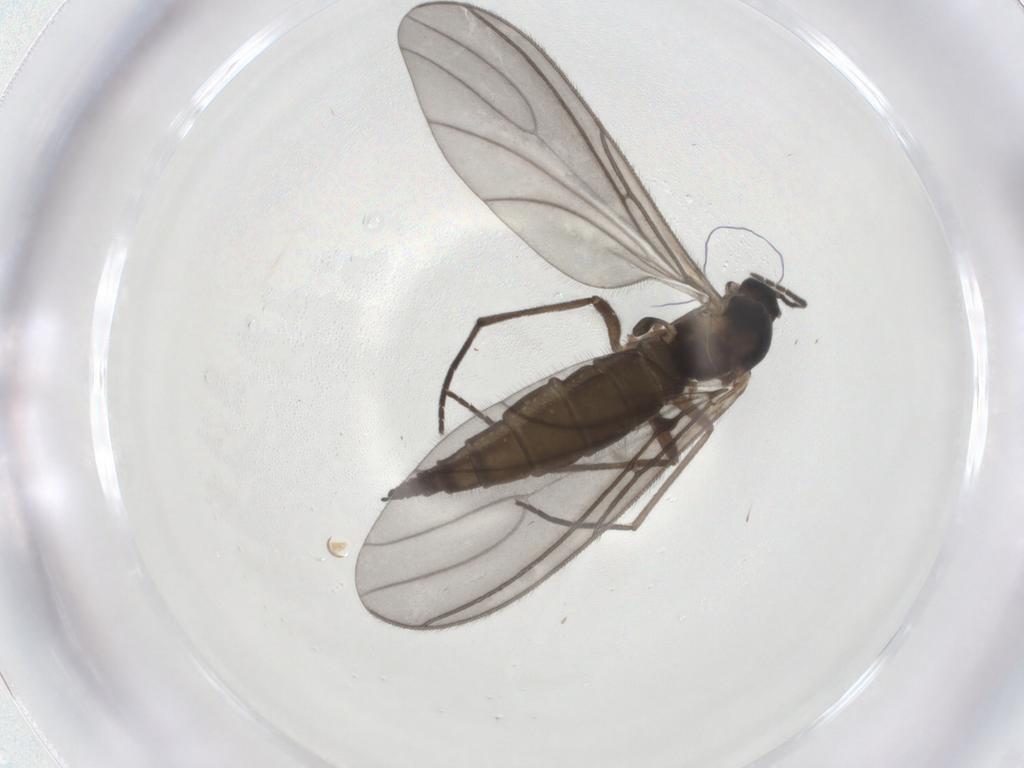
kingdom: Animalia
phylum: Arthropoda
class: Insecta
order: Diptera
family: Sciaridae
